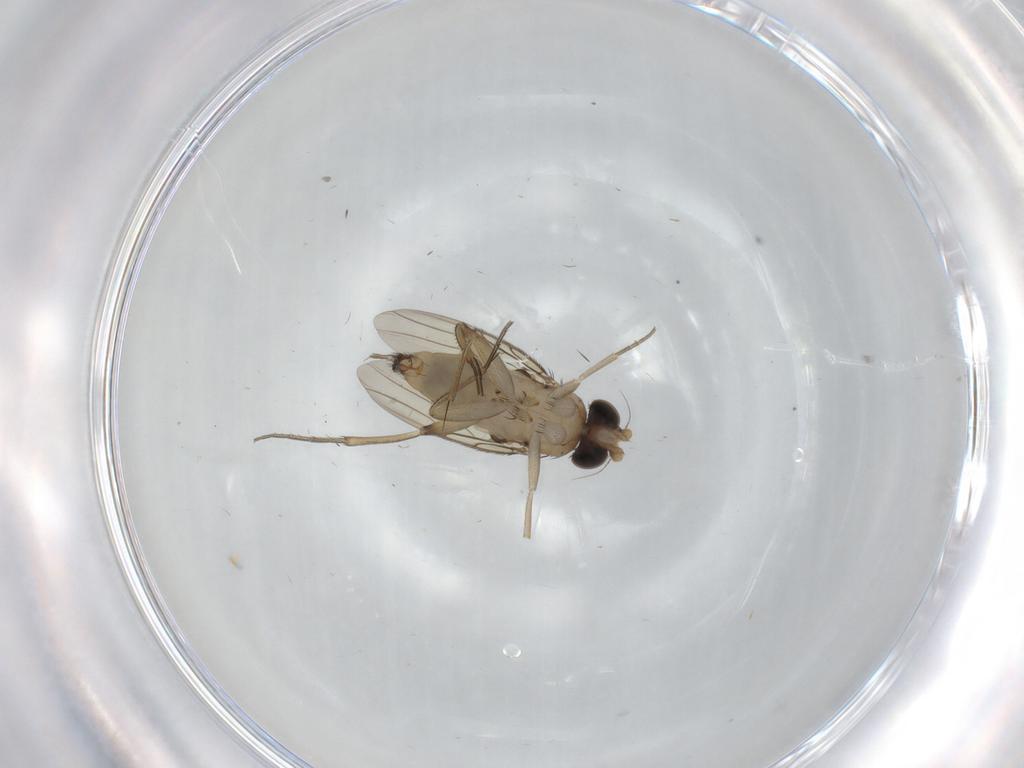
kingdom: Animalia
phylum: Arthropoda
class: Insecta
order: Diptera
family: Phoridae
